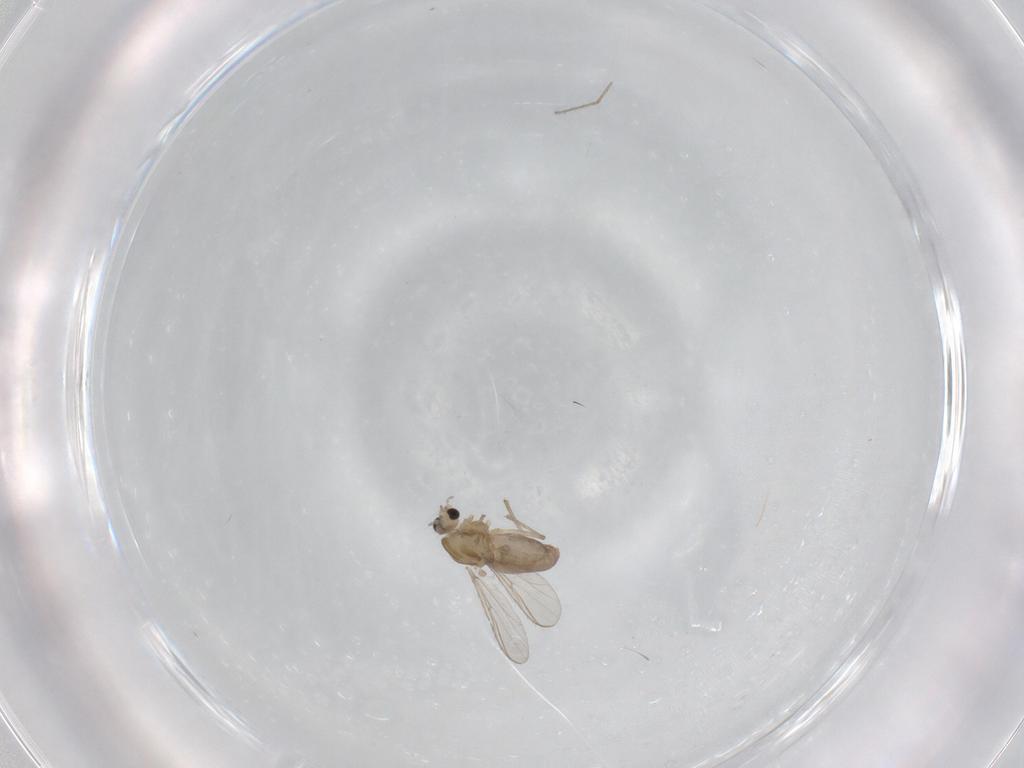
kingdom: Animalia
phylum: Arthropoda
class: Insecta
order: Diptera
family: Chironomidae
